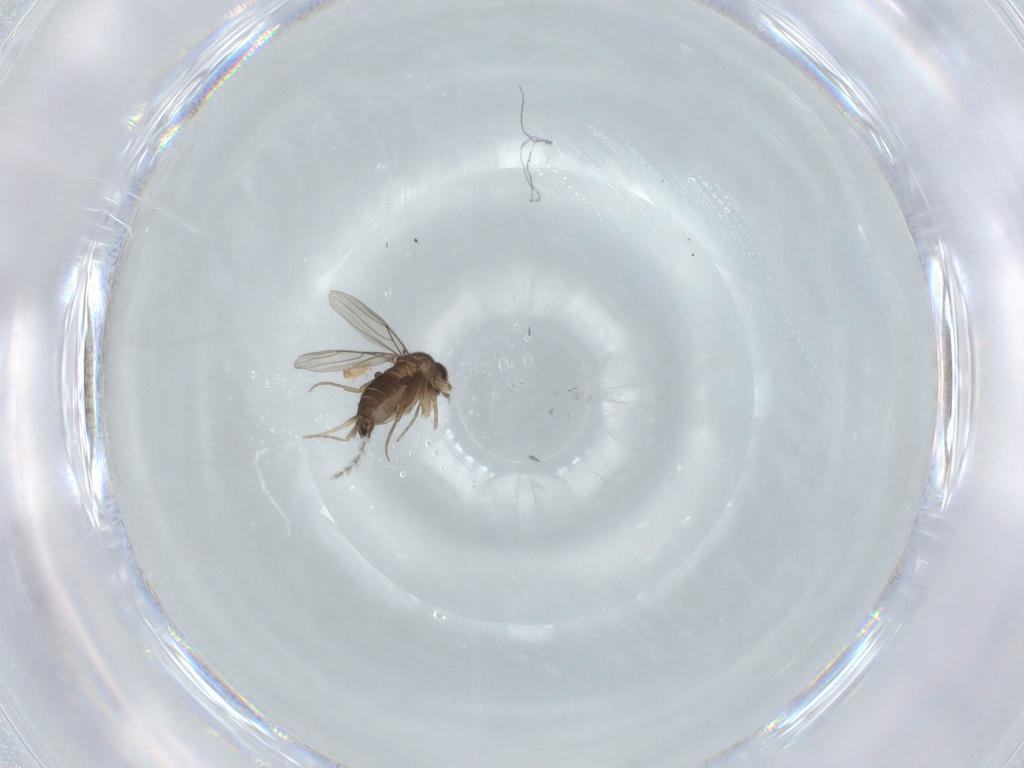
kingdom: Animalia
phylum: Arthropoda
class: Insecta
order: Diptera
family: Phoridae
